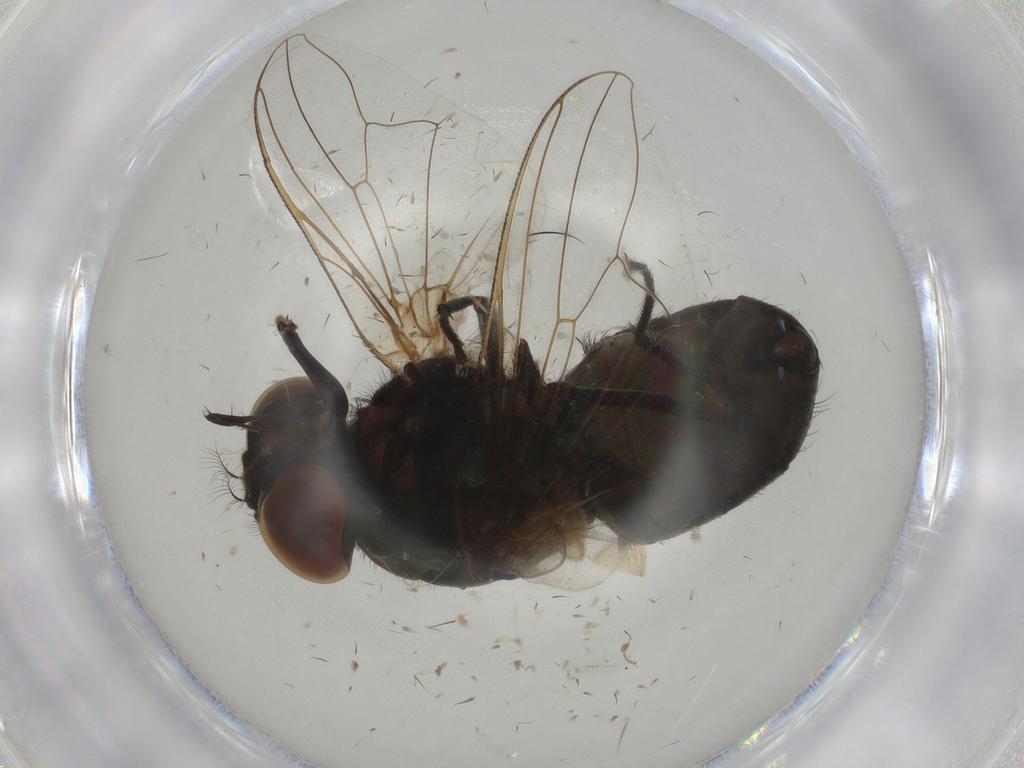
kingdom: Animalia
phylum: Arthropoda
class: Insecta
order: Diptera
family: Muscidae
